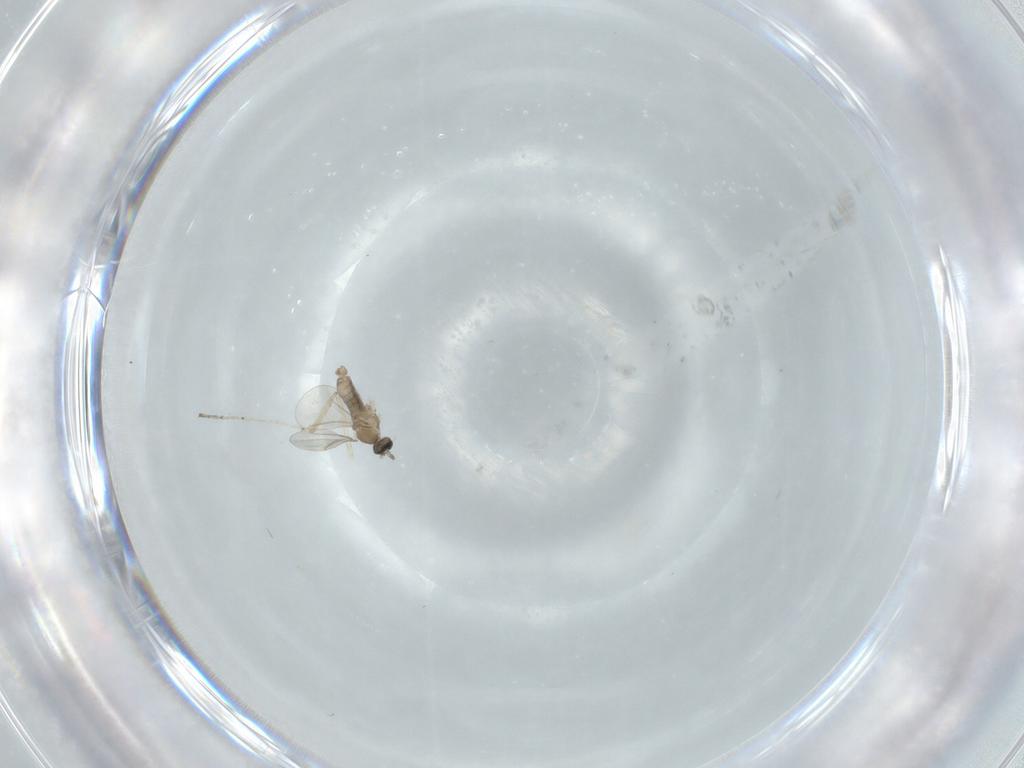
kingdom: Animalia
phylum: Arthropoda
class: Insecta
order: Diptera
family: Cecidomyiidae
